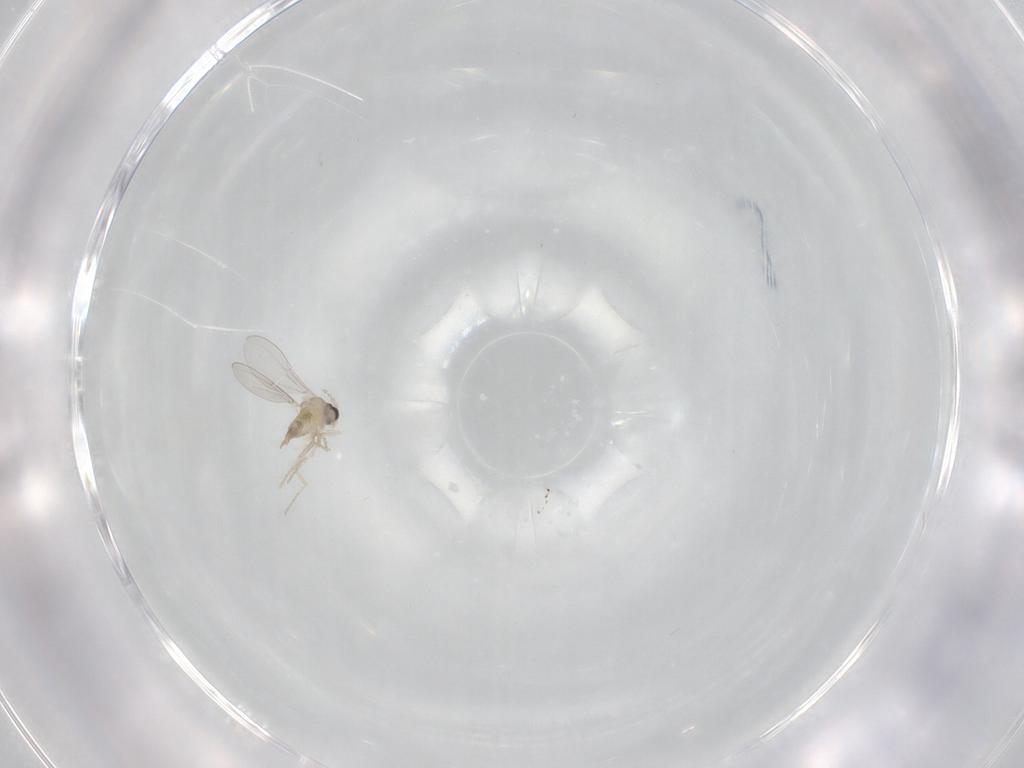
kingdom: Animalia
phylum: Arthropoda
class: Insecta
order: Diptera
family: Cecidomyiidae
